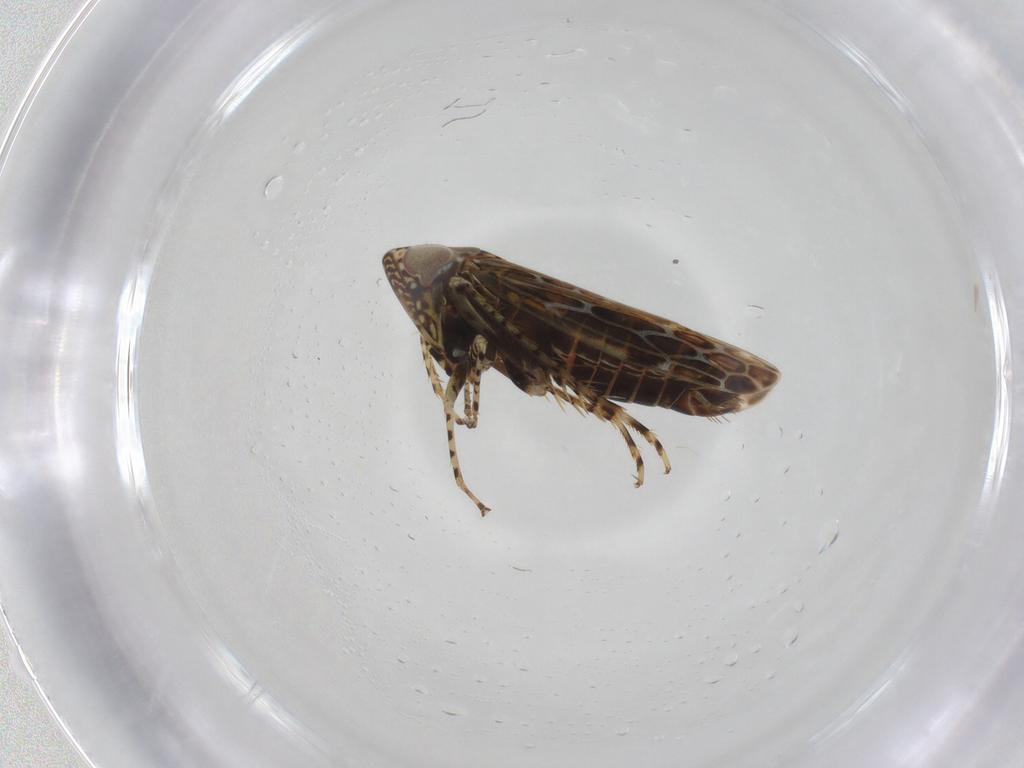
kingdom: Animalia
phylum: Arthropoda
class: Insecta
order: Hemiptera
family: Cicadellidae
